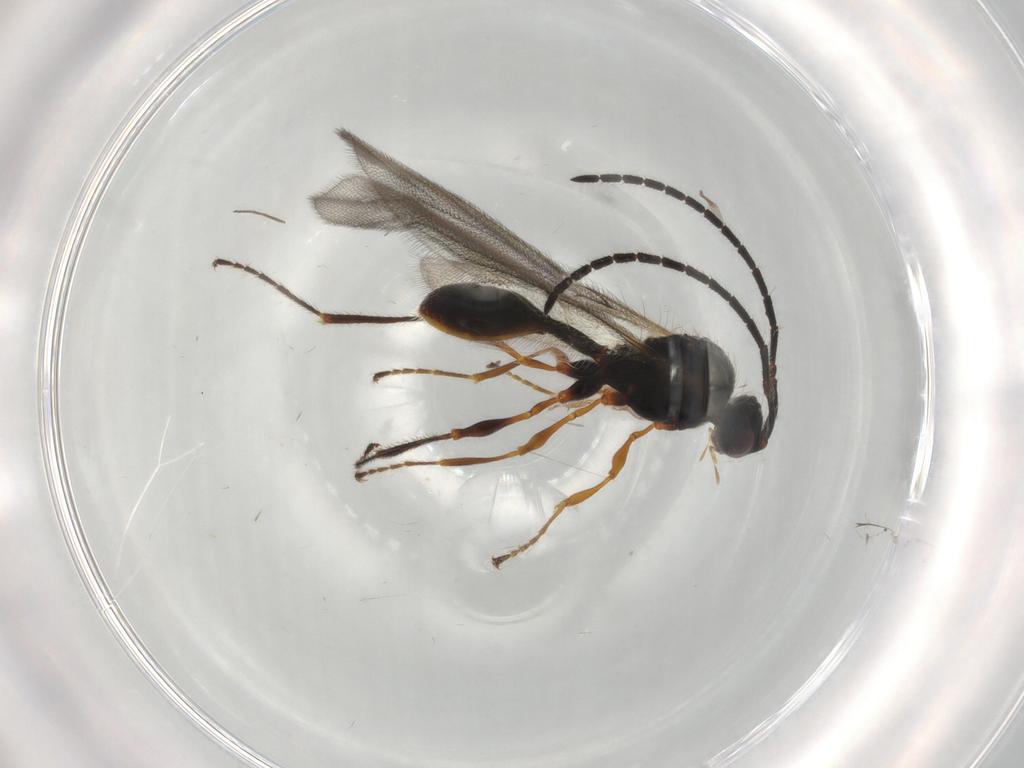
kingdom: Animalia
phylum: Arthropoda
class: Insecta
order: Hymenoptera
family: Diapriidae
